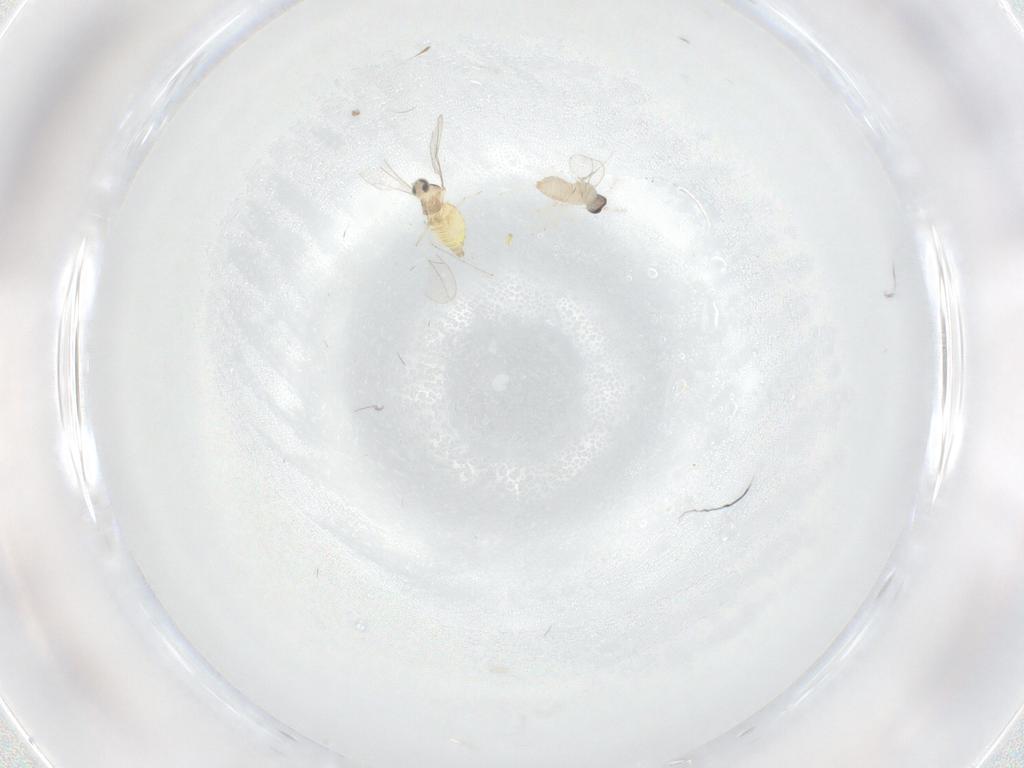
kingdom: Animalia
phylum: Arthropoda
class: Insecta
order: Diptera
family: Cecidomyiidae
